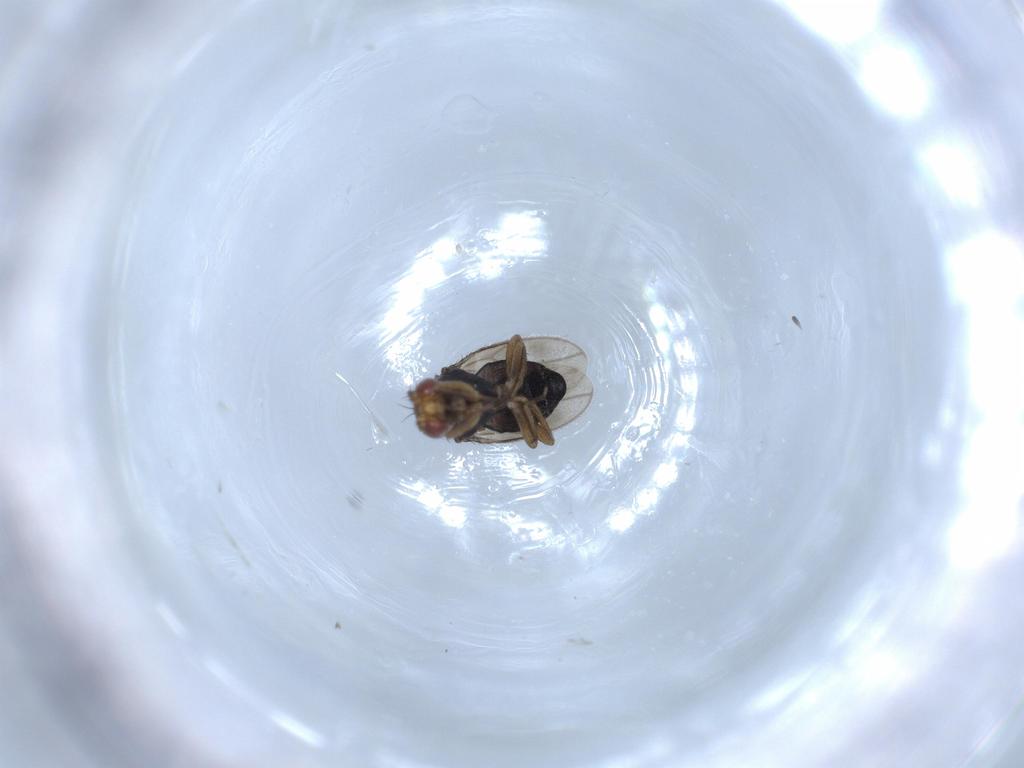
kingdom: Animalia
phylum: Arthropoda
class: Insecta
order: Diptera
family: Sphaeroceridae
